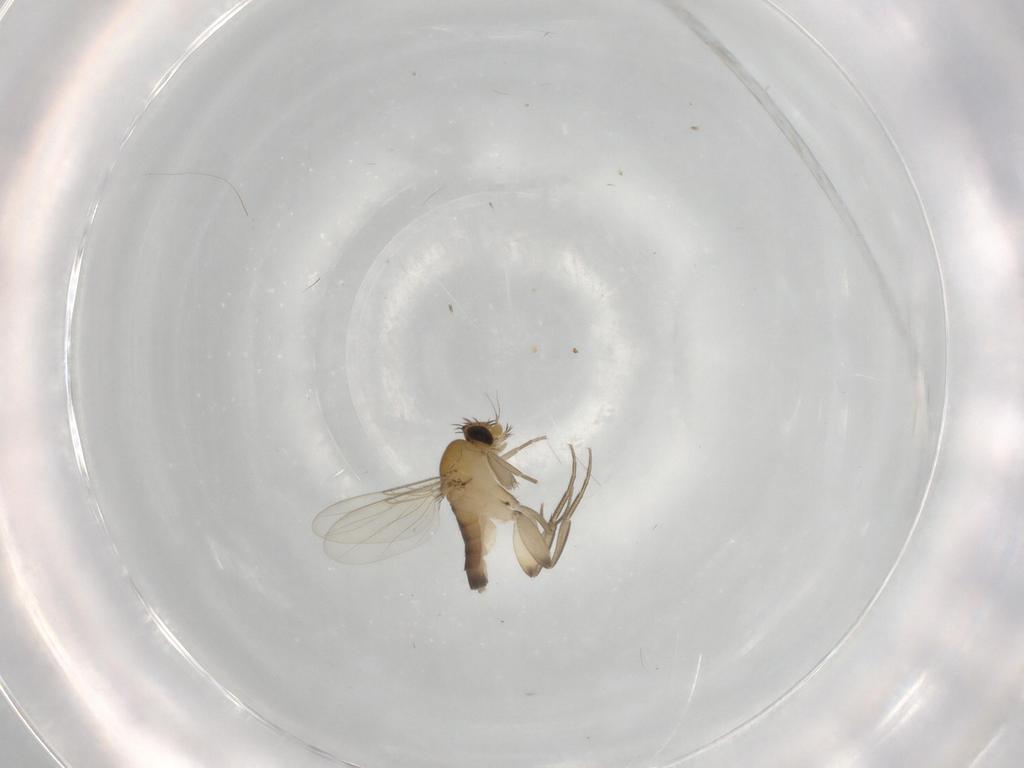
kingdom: Animalia
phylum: Arthropoda
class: Insecta
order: Diptera
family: Phoridae
